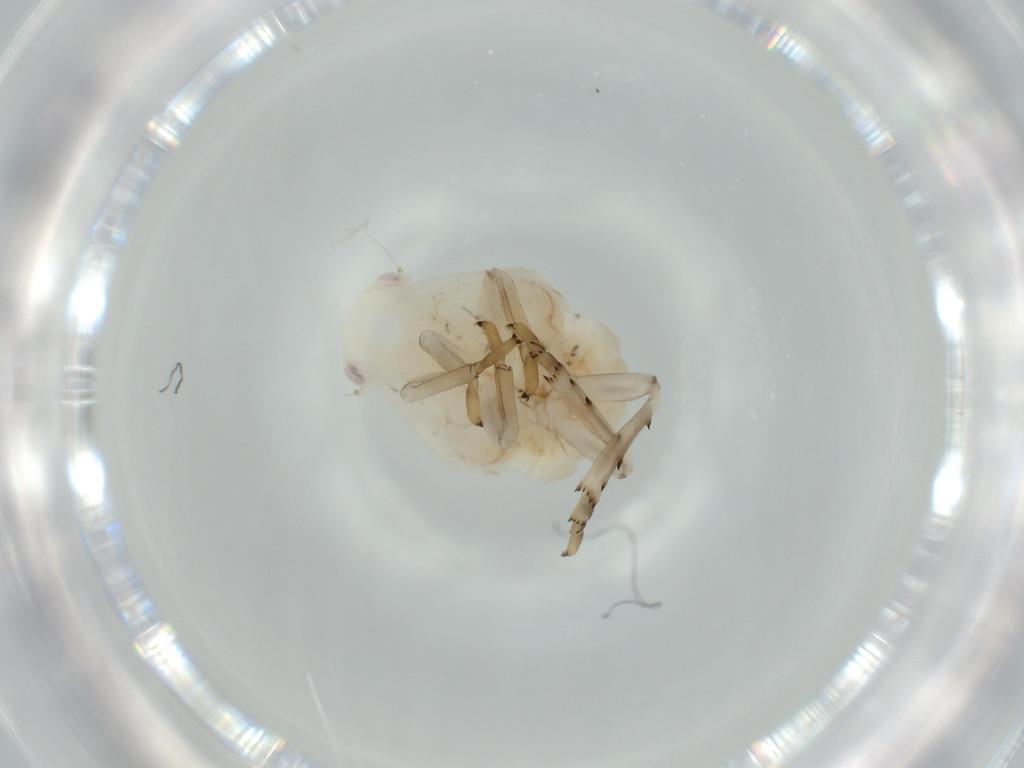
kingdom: Animalia
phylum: Arthropoda
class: Insecta
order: Hemiptera
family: Flatidae
